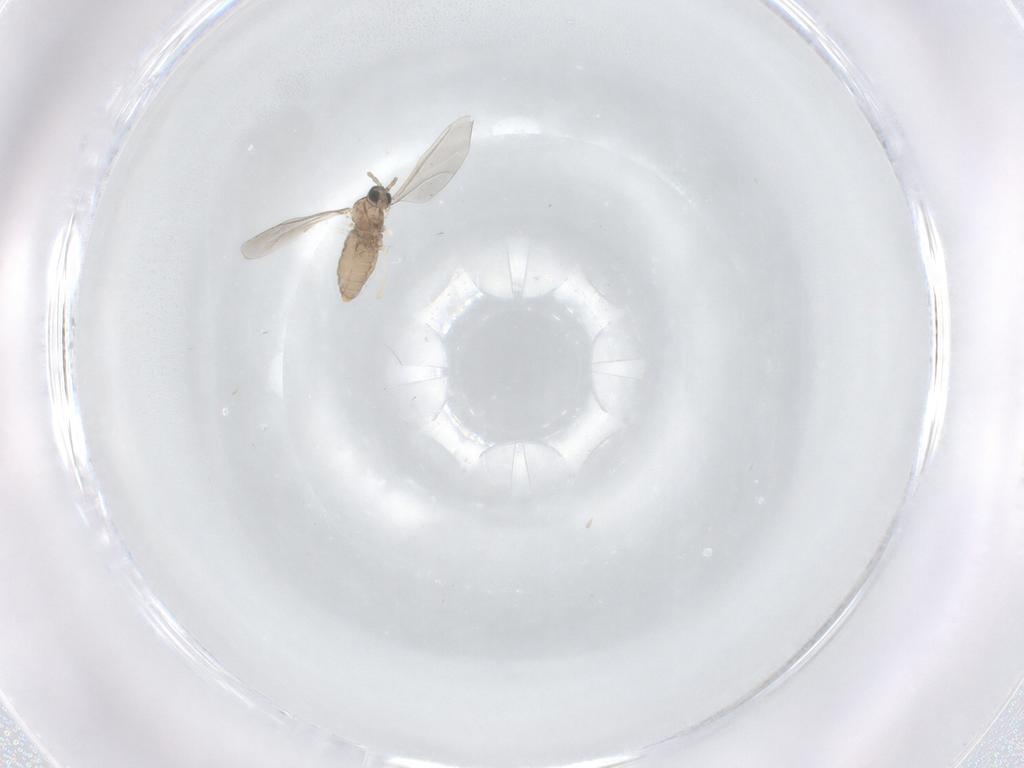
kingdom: Animalia
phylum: Arthropoda
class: Insecta
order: Diptera
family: Cecidomyiidae
